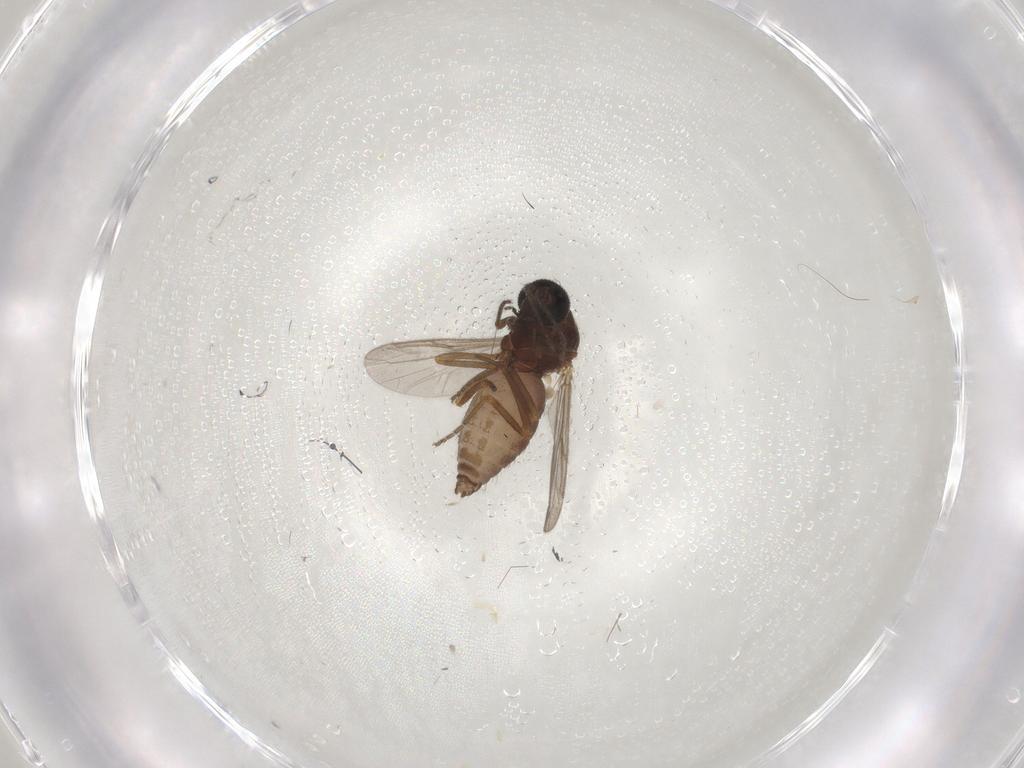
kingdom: Animalia
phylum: Arthropoda
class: Insecta
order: Diptera
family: Ceratopogonidae
